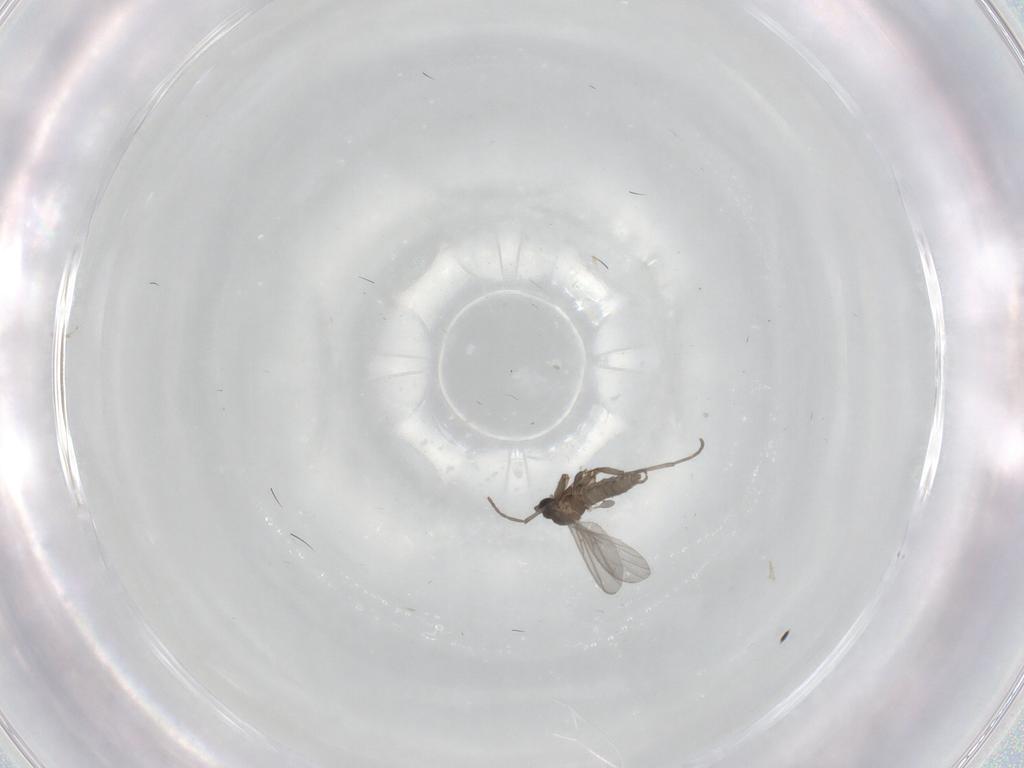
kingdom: Animalia
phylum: Arthropoda
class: Insecta
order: Diptera
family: Sciaridae
